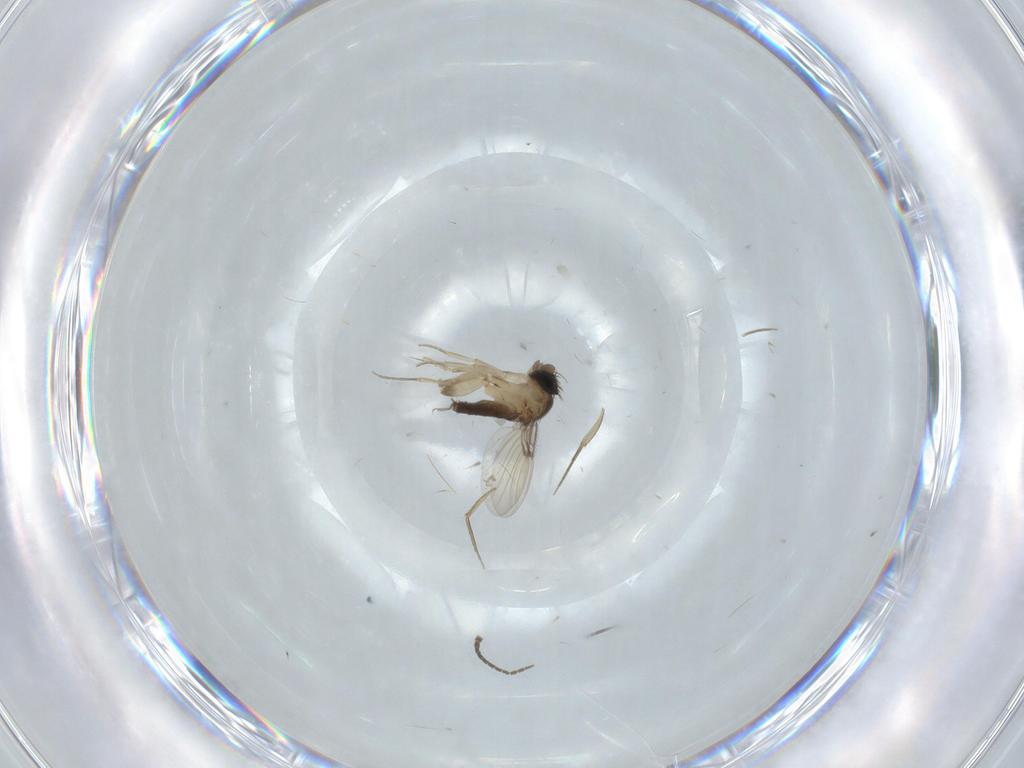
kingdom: Animalia
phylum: Arthropoda
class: Insecta
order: Diptera
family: Phoridae
